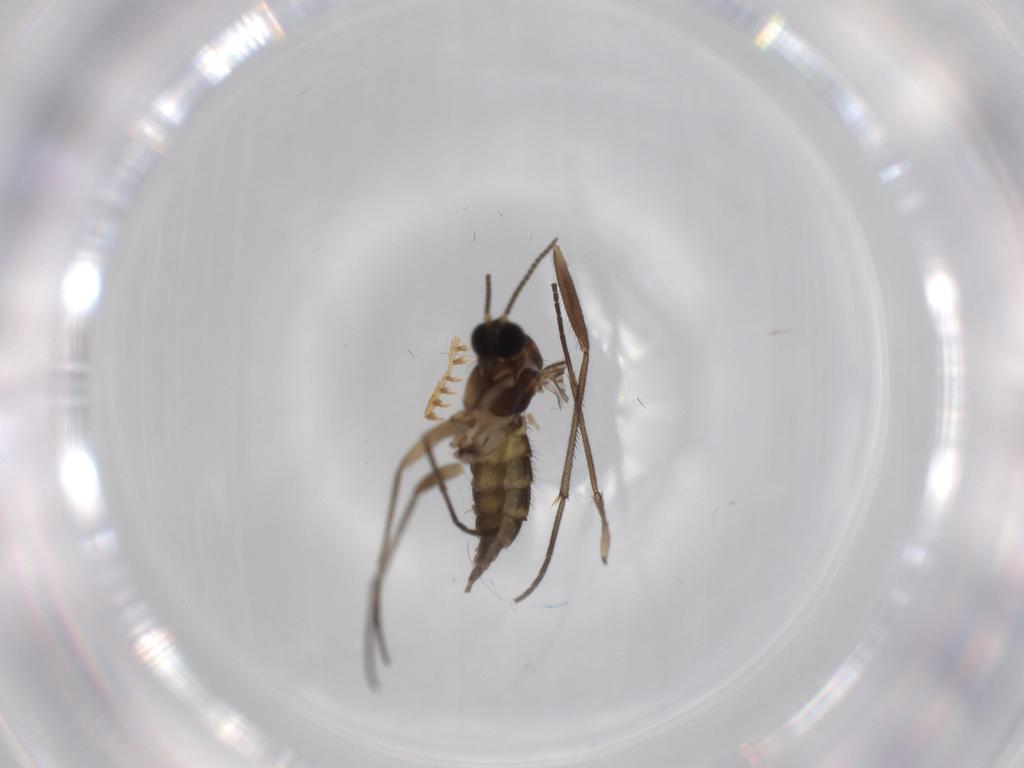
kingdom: Animalia
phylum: Arthropoda
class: Insecta
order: Diptera
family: Sciaridae
